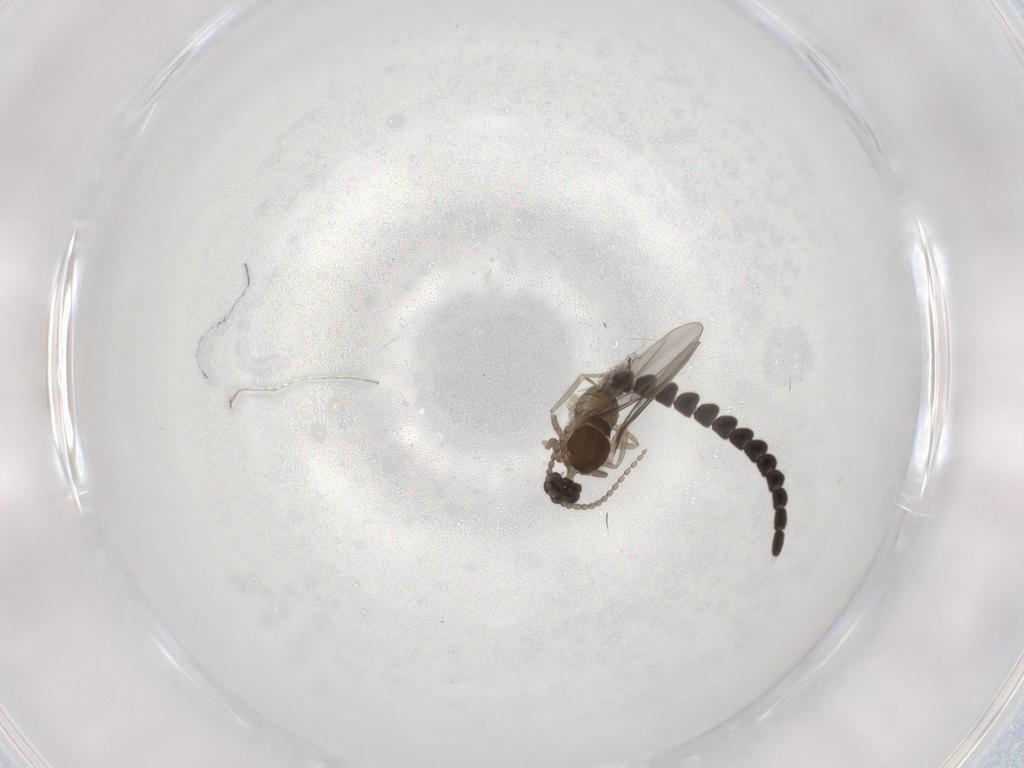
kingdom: Animalia
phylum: Arthropoda
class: Insecta
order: Diptera
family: Cecidomyiidae
